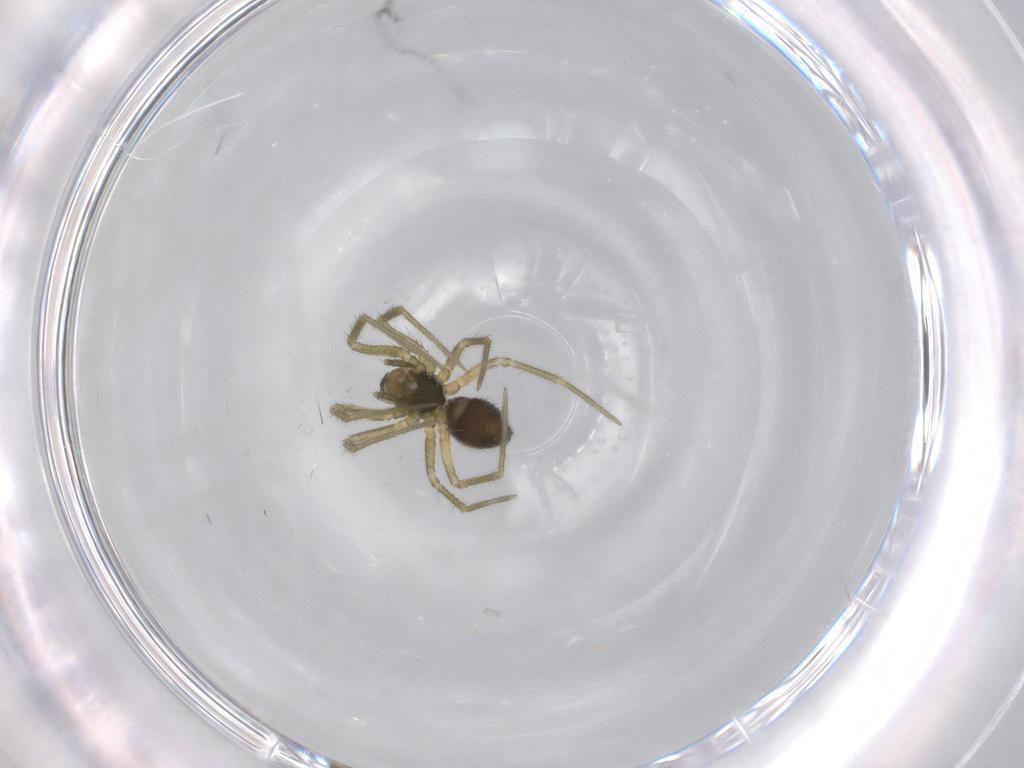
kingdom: Animalia
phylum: Arthropoda
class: Arachnida
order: Araneae
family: Linyphiidae
